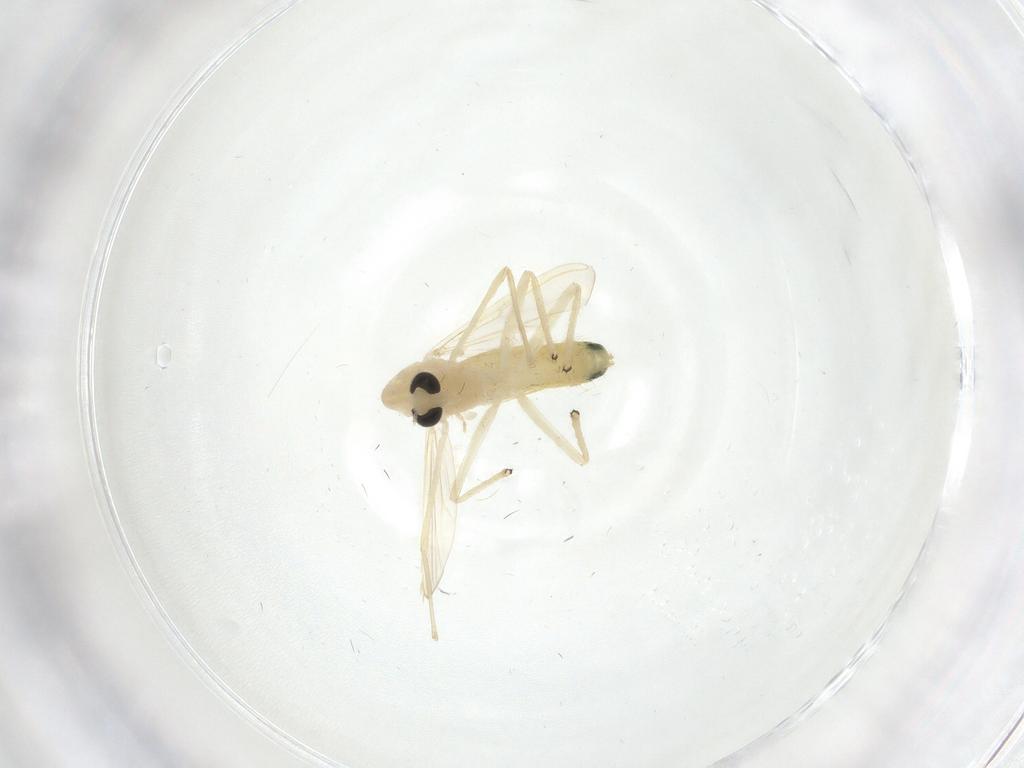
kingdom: Animalia
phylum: Arthropoda
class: Insecta
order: Diptera
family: Chironomidae
